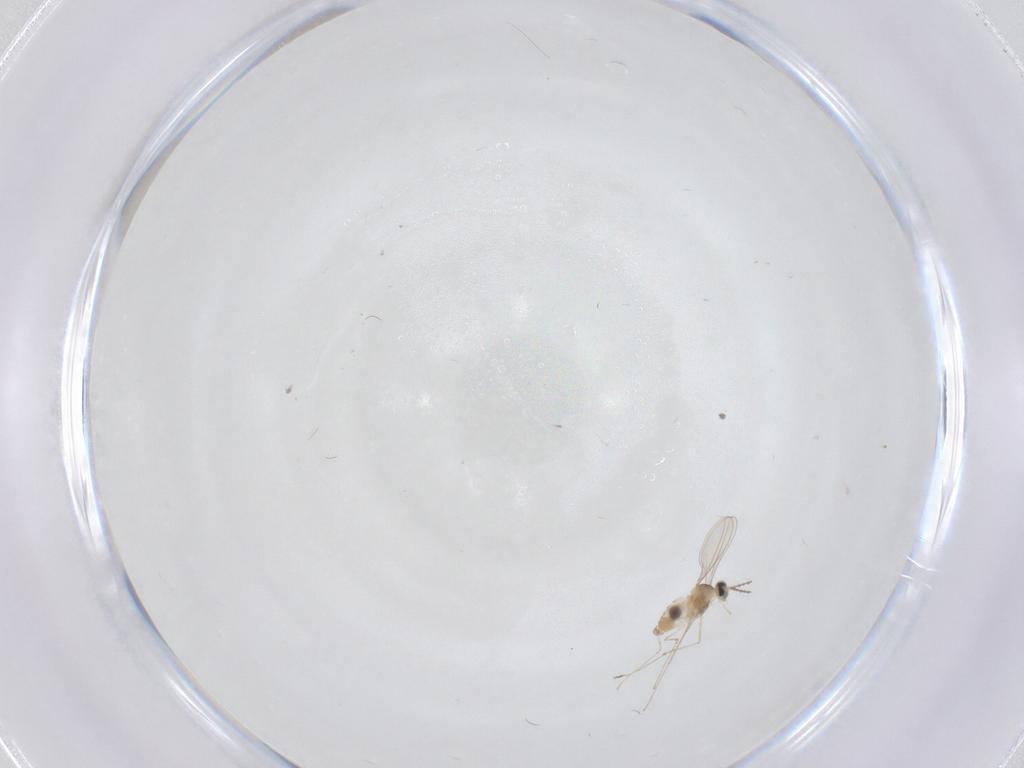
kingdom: Animalia
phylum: Arthropoda
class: Insecta
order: Diptera
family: Cecidomyiidae
